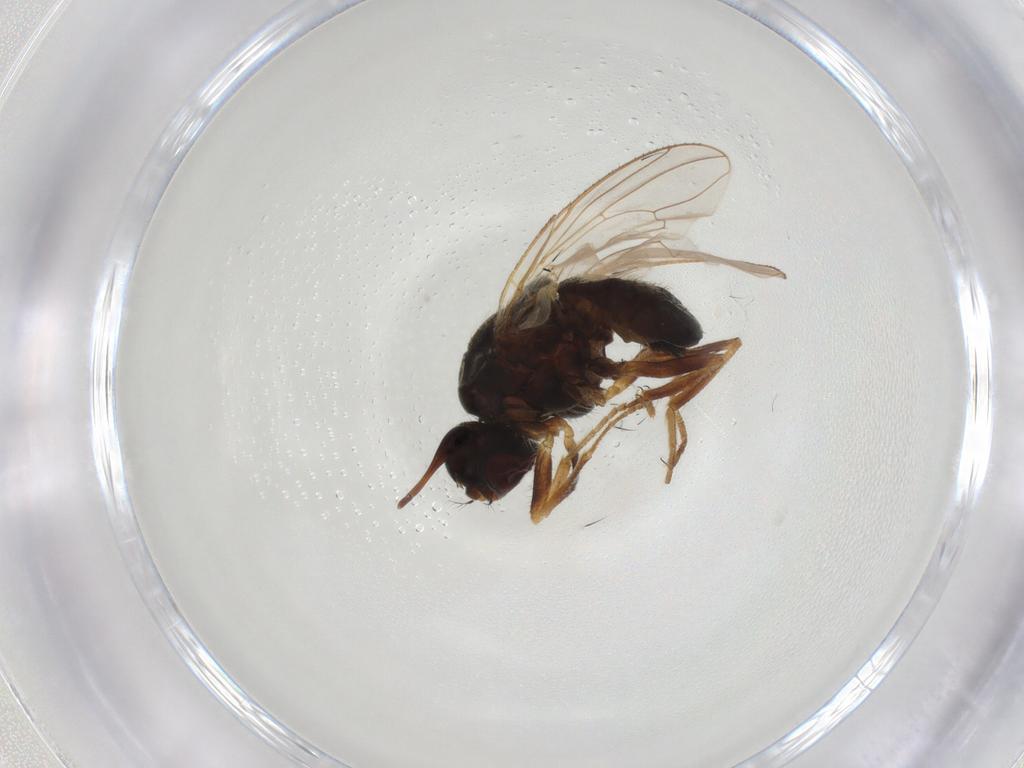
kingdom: Animalia
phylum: Arthropoda
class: Insecta
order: Diptera
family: Muscidae
